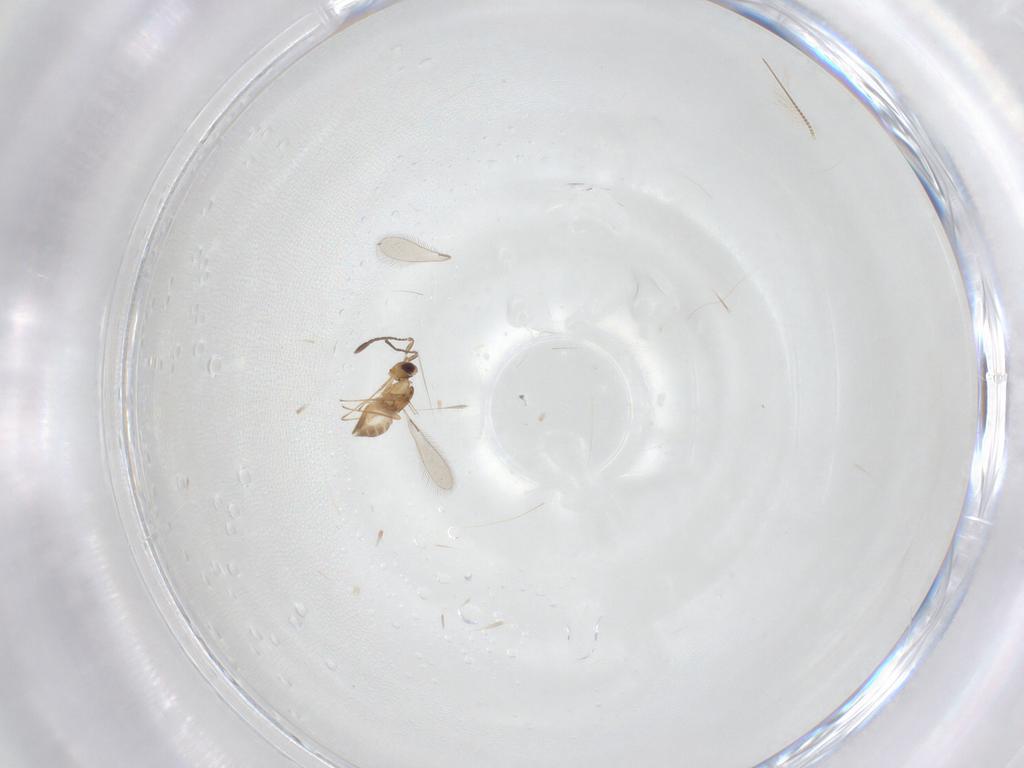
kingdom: Animalia
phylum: Arthropoda
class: Insecta
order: Hymenoptera
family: Mymaridae
